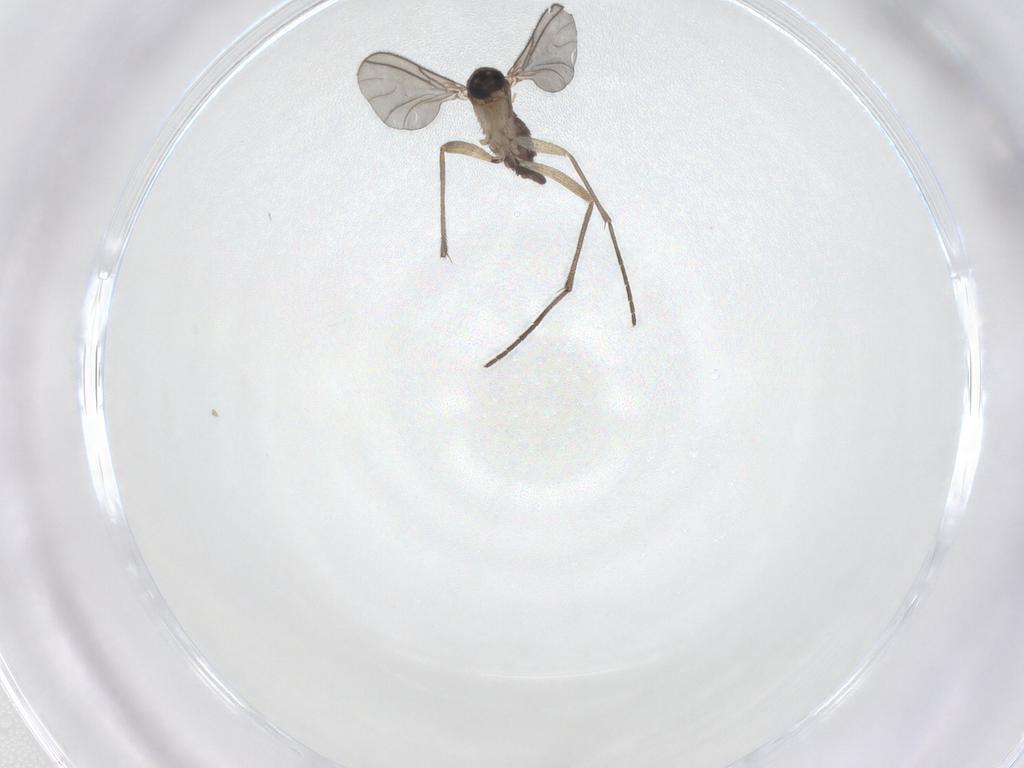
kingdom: Animalia
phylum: Arthropoda
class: Insecta
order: Diptera
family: Sciaridae
